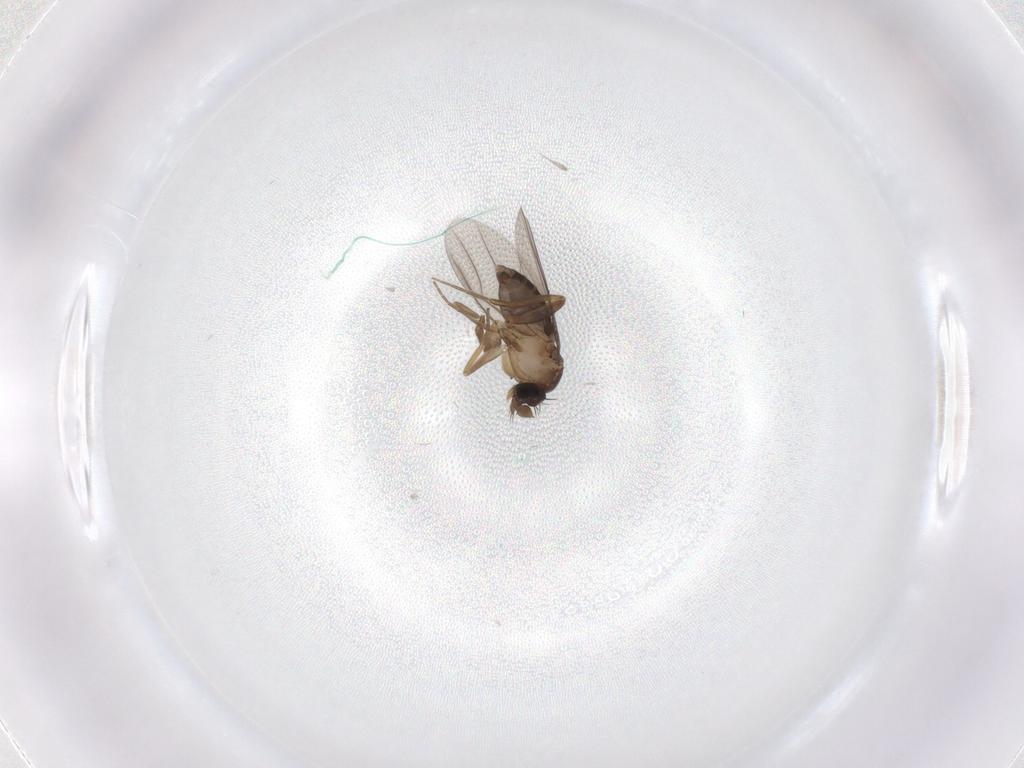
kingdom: Animalia
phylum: Arthropoda
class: Insecta
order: Diptera
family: Phoridae
